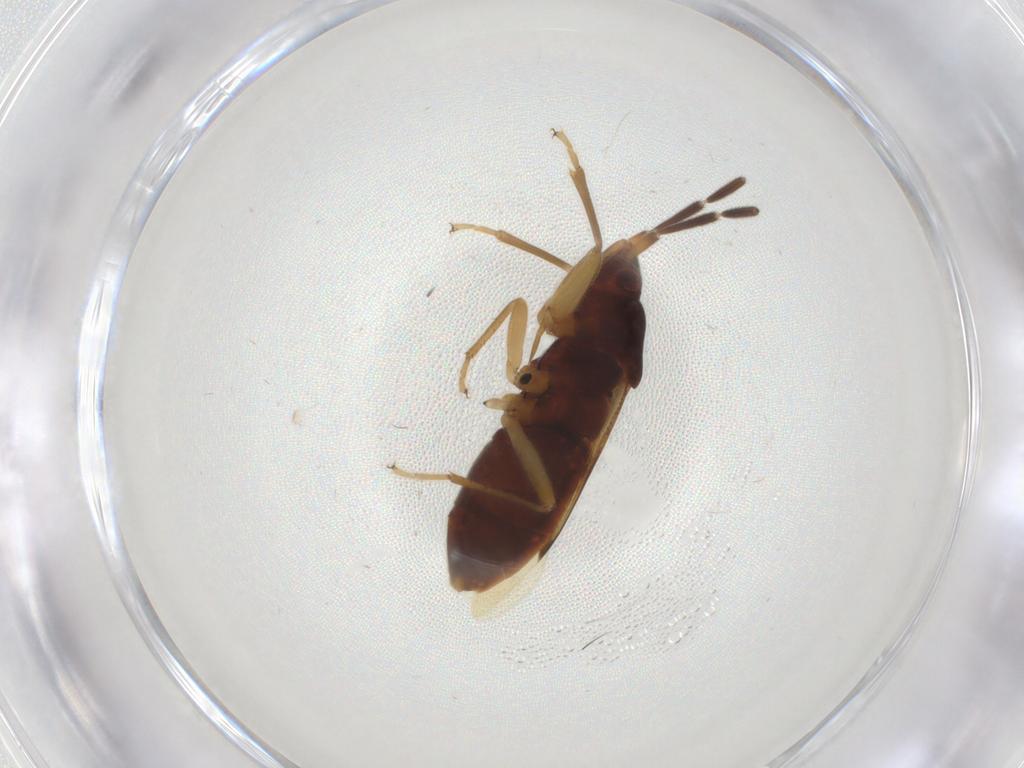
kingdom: Animalia
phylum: Arthropoda
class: Insecta
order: Hemiptera
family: Rhyparochromidae
